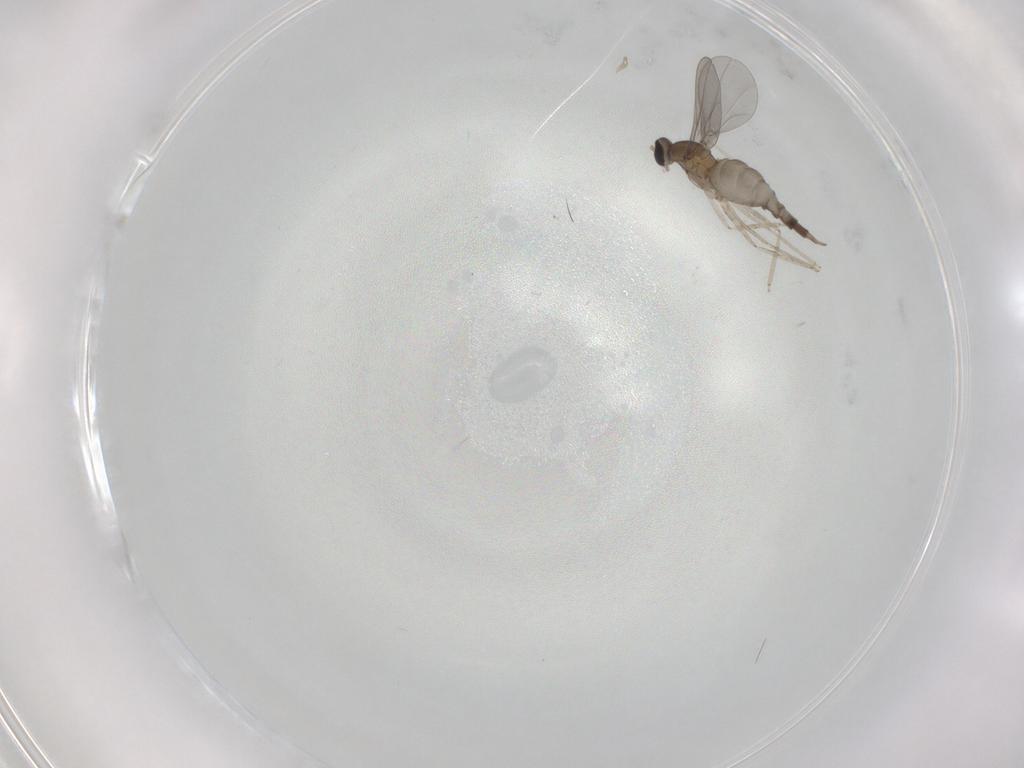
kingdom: Animalia
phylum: Arthropoda
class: Insecta
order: Diptera
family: Cecidomyiidae
